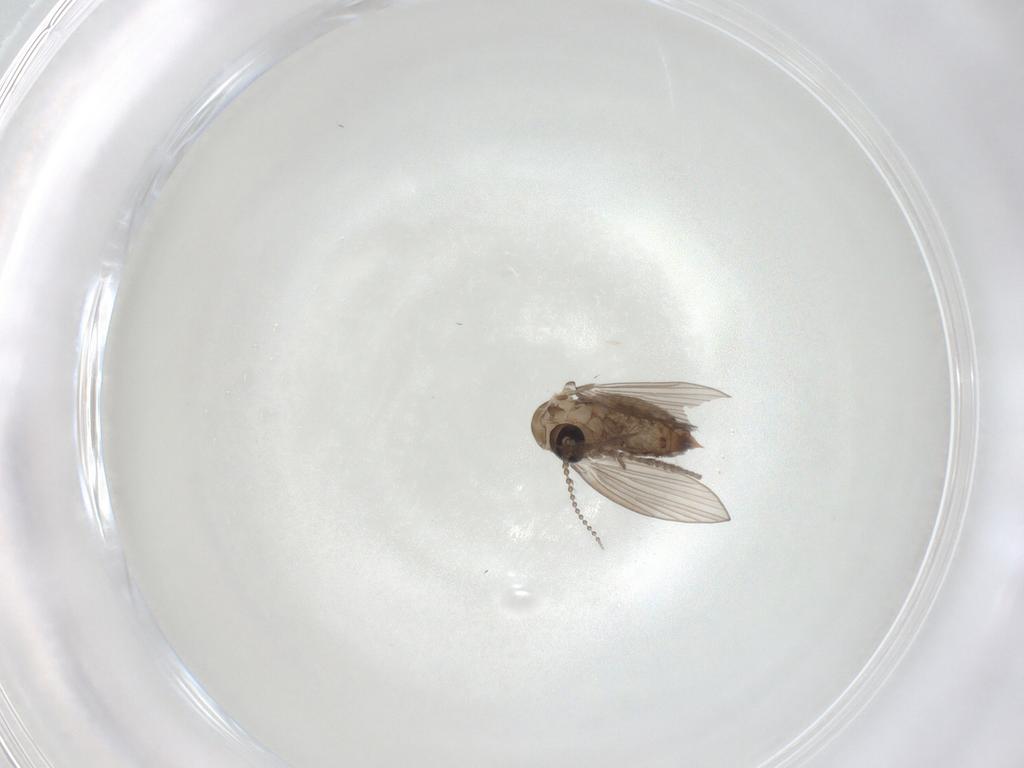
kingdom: Animalia
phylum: Arthropoda
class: Insecta
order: Diptera
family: Psychodidae
